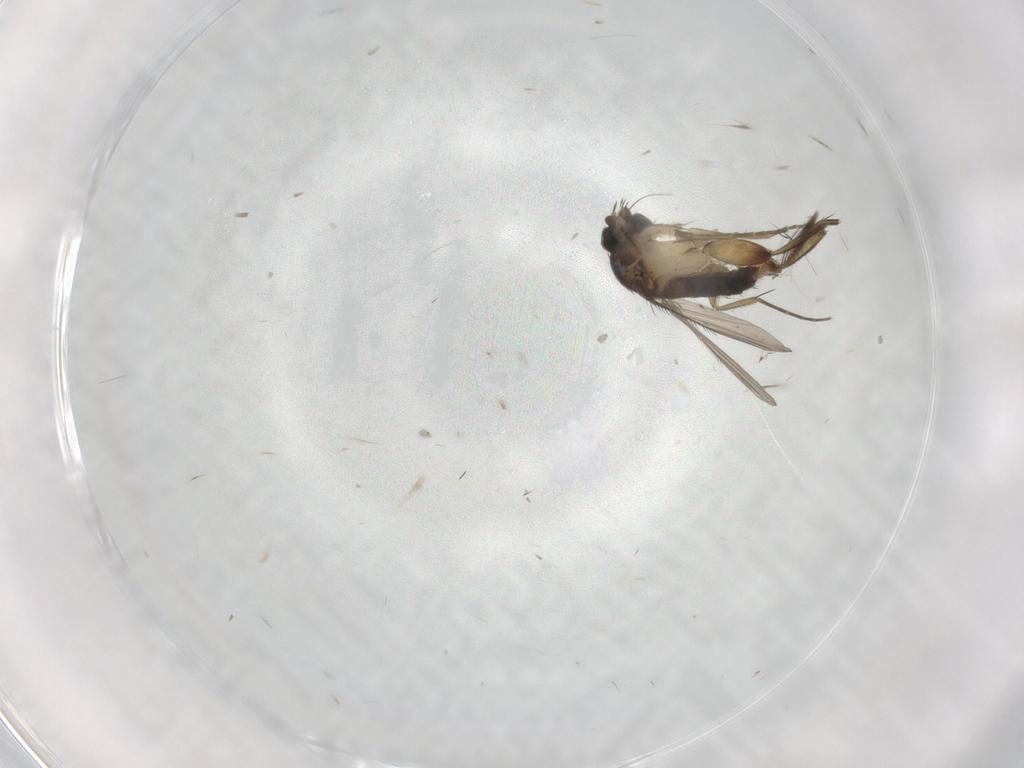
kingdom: Animalia
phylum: Arthropoda
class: Insecta
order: Diptera
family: Phoridae
